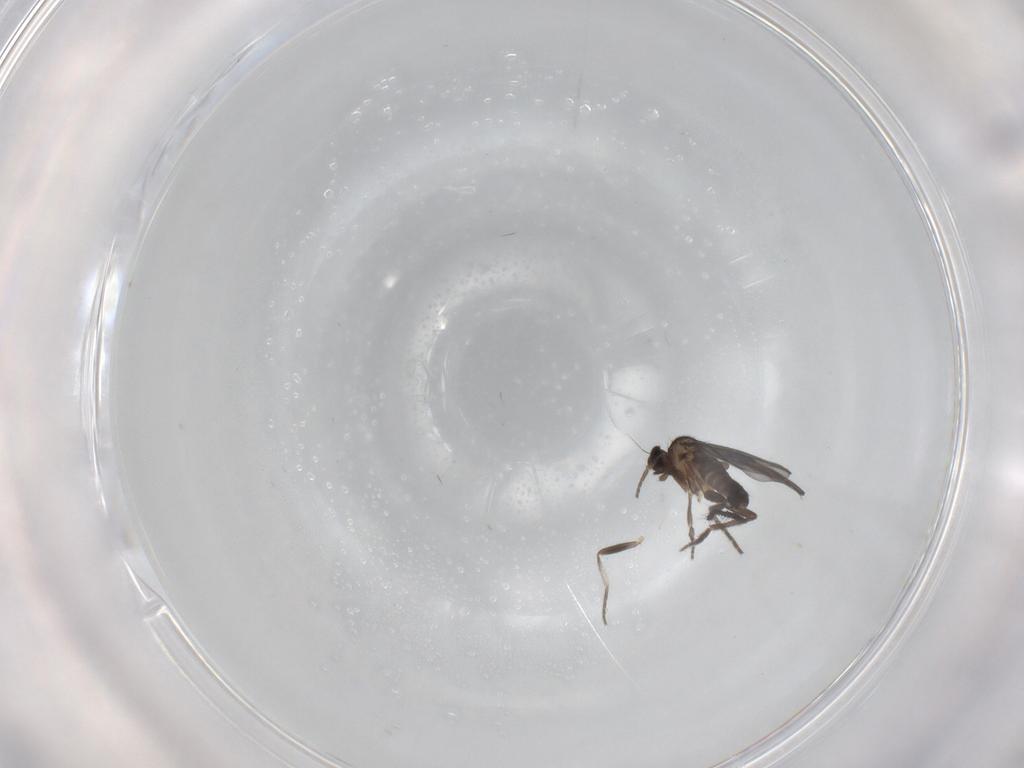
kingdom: Animalia
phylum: Arthropoda
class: Insecta
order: Diptera
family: Phoridae
